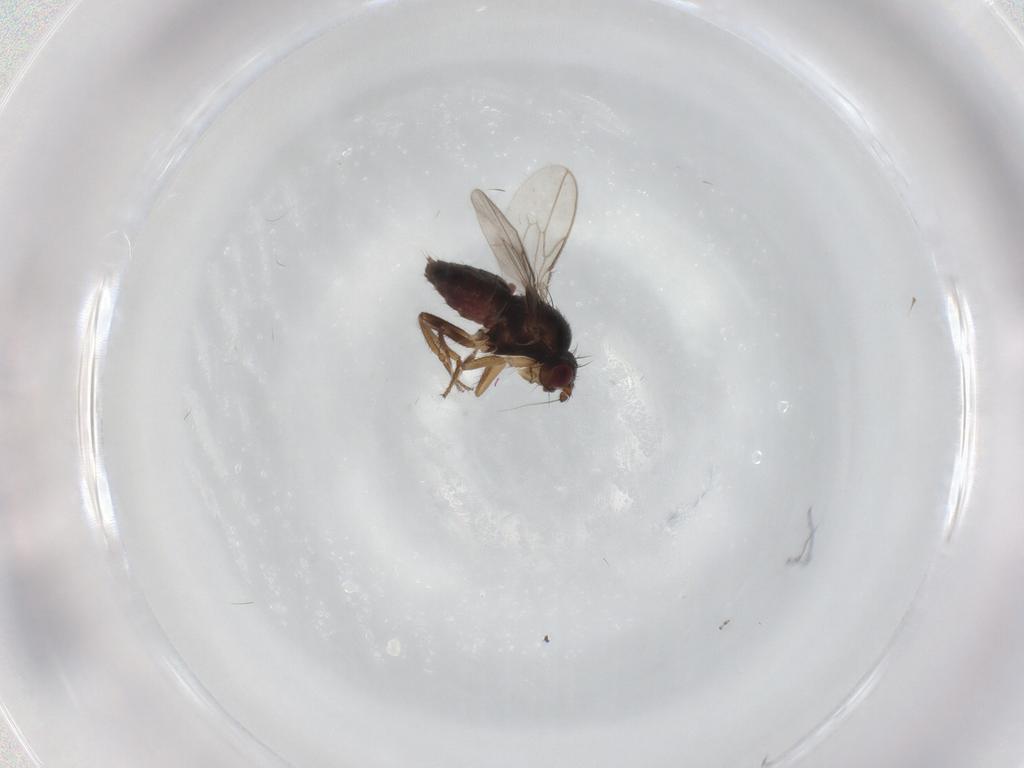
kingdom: Animalia
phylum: Arthropoda
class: Insecta
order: Diptera
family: Sphaeroceridae
